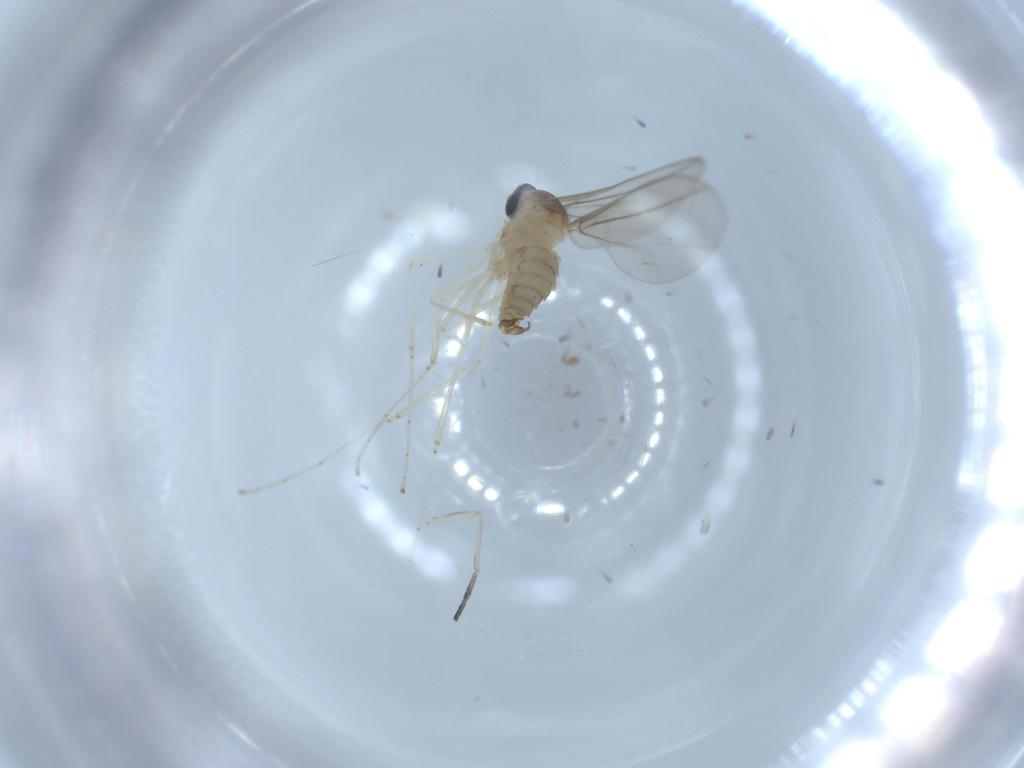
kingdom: Animalia
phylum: Arthropoda
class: Insecta
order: Diptera
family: Cecidomyiidae
